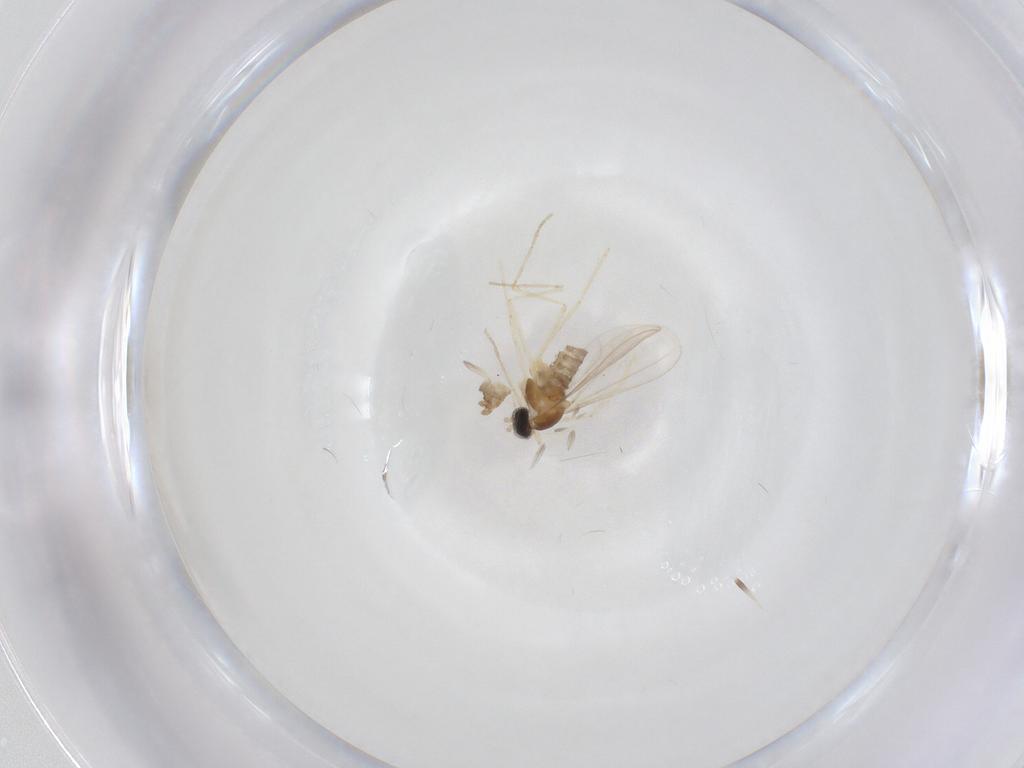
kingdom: Animalia
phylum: Arthropoda
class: Insecta
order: Diptera
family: Cecidomyiidae
